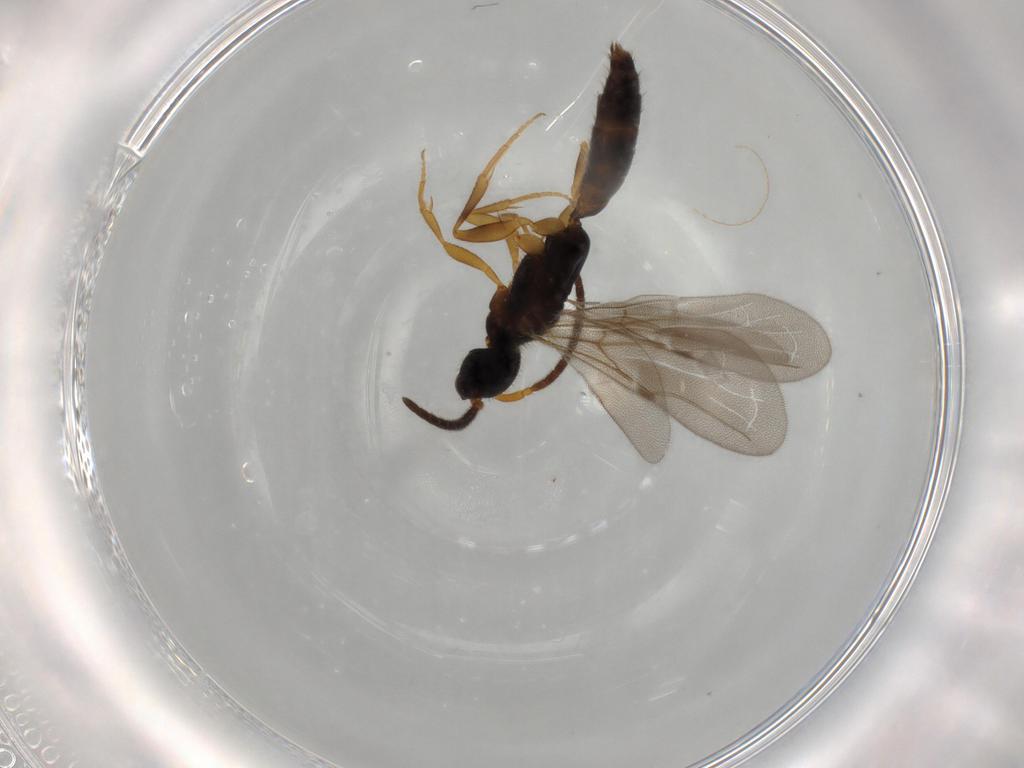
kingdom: Animalia
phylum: Arthropoda
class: Insecta
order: Hymenoptera
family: Bethylidae
